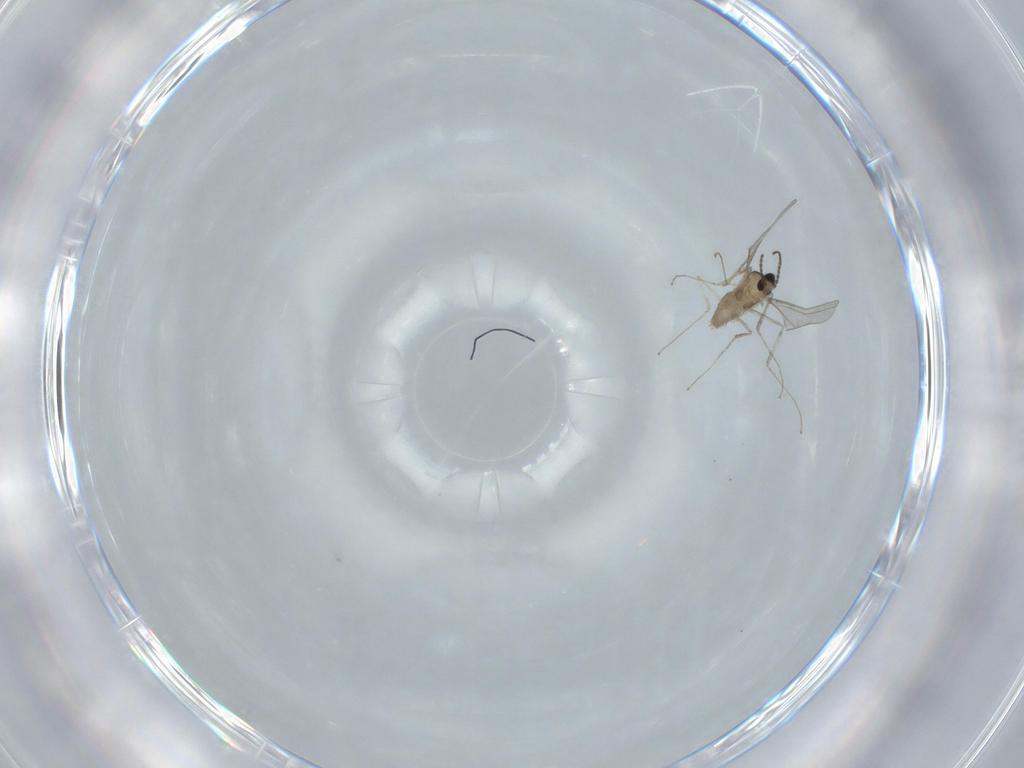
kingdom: Animalia
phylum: Arthropoda
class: Insecta
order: Diptera
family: Cecidomyiidae
